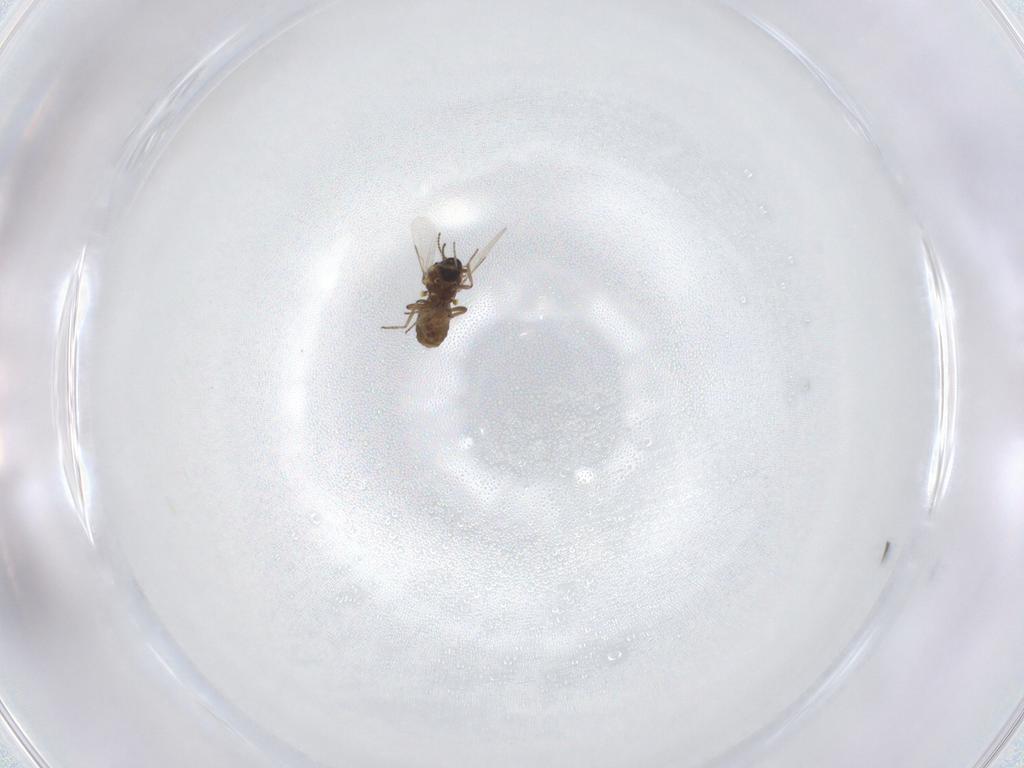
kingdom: Animalia
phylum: Arthropoda
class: Insecta
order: Diptera
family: Ceratopogonidae
